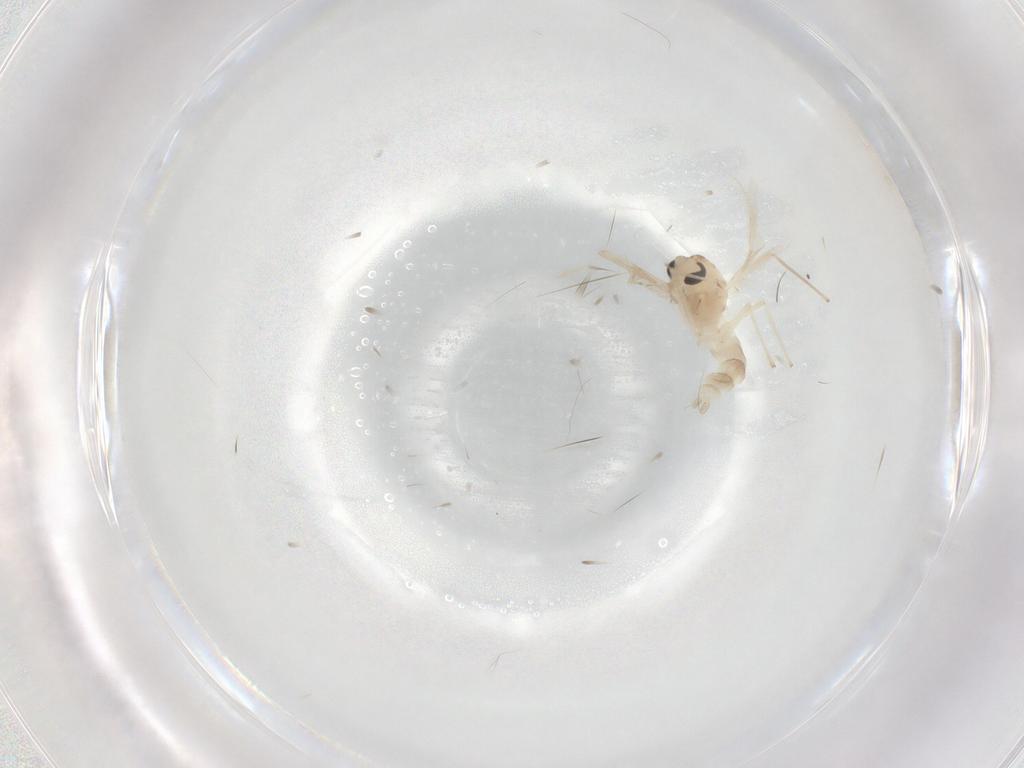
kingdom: Animalia
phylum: Arthropoda
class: Insecta
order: Diptera
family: Chironomidae
